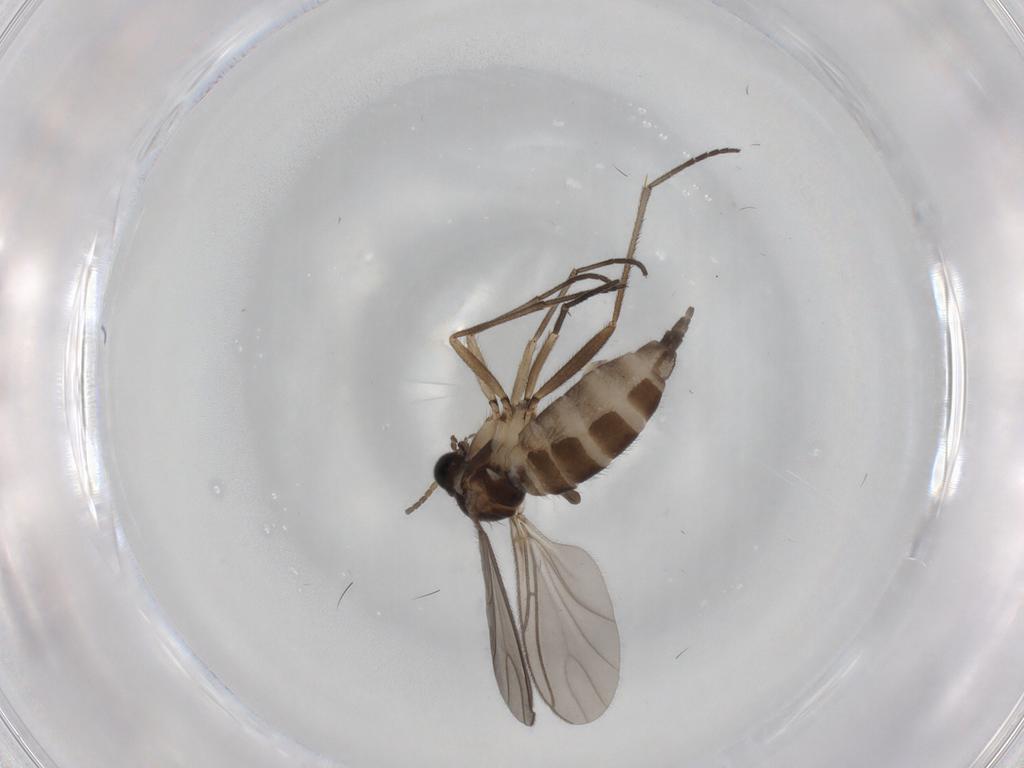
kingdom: Animalia
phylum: Arthropoda
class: Insecta
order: Diptera
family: Sciaridae
